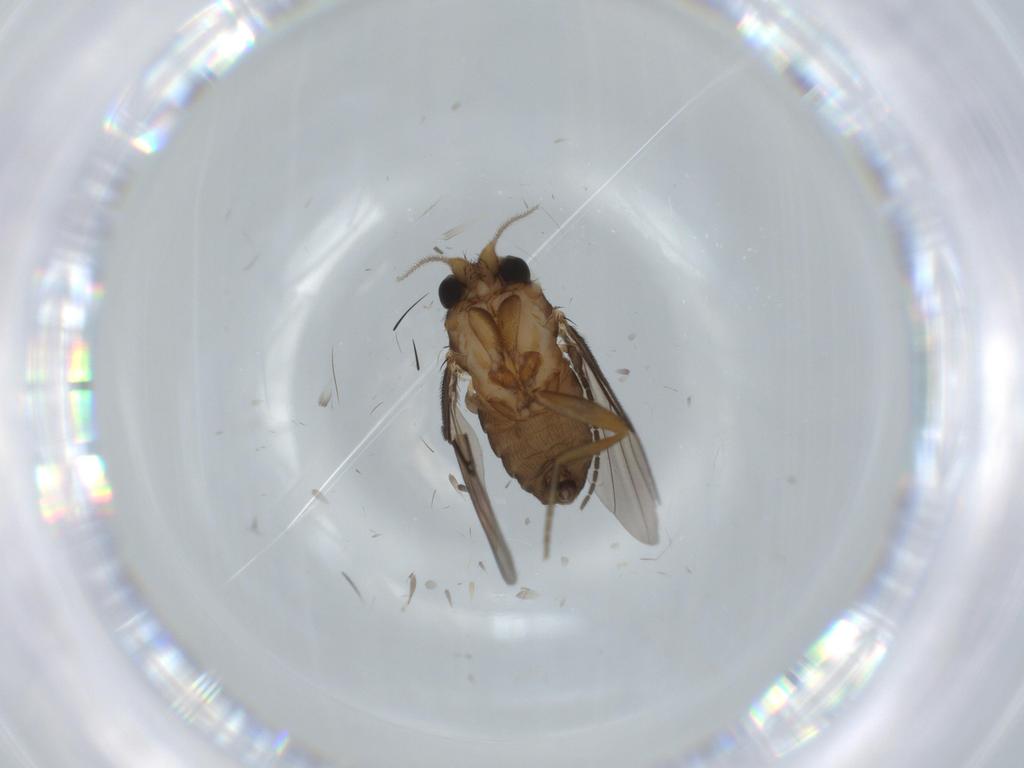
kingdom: Animalia
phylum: Arthropoda
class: Insecta
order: Diptera
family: Sciaridae
